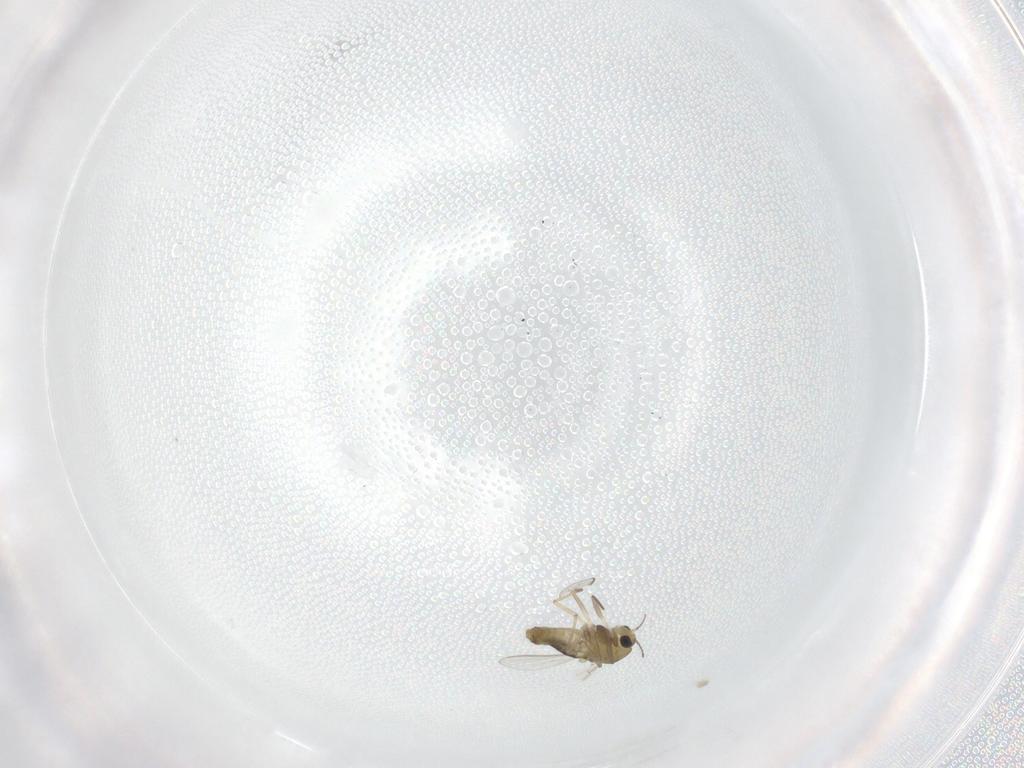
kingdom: Animalia
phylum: Arthropoda
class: Insecta
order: Diptera
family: Chironomidae
